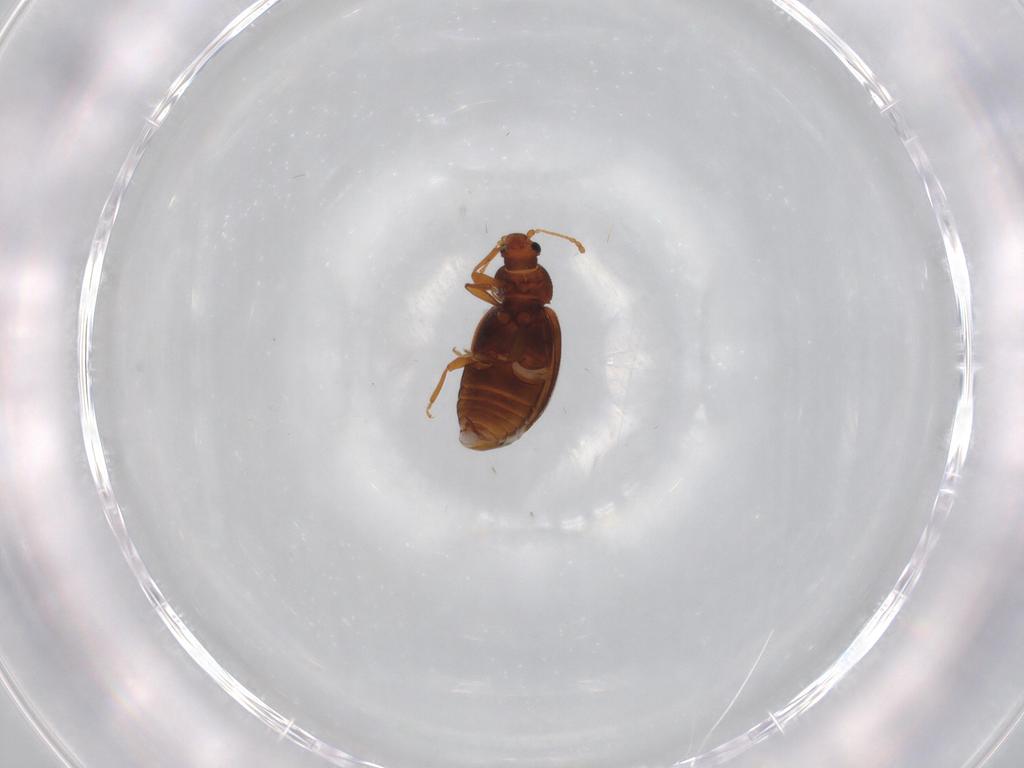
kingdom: Animalia
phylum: Arthropoda
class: Insecta
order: Coleoptera
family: Latridiidae
